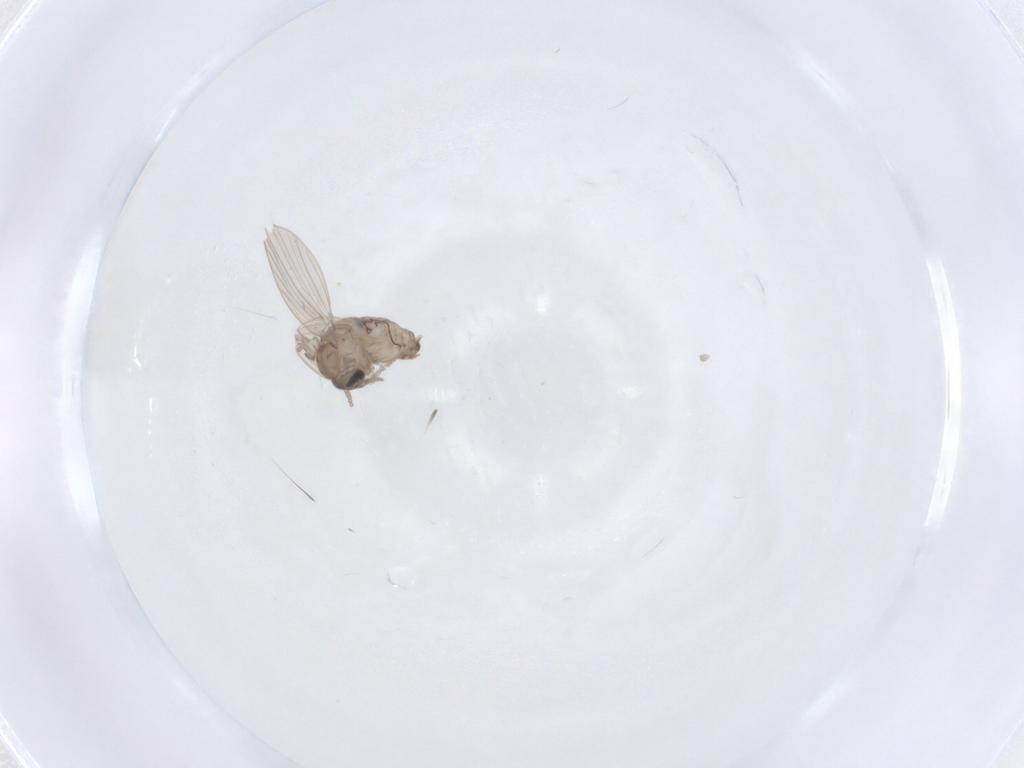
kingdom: Animalia
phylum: Arthropoda
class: Insecta
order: Diptera
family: Psychodidae
